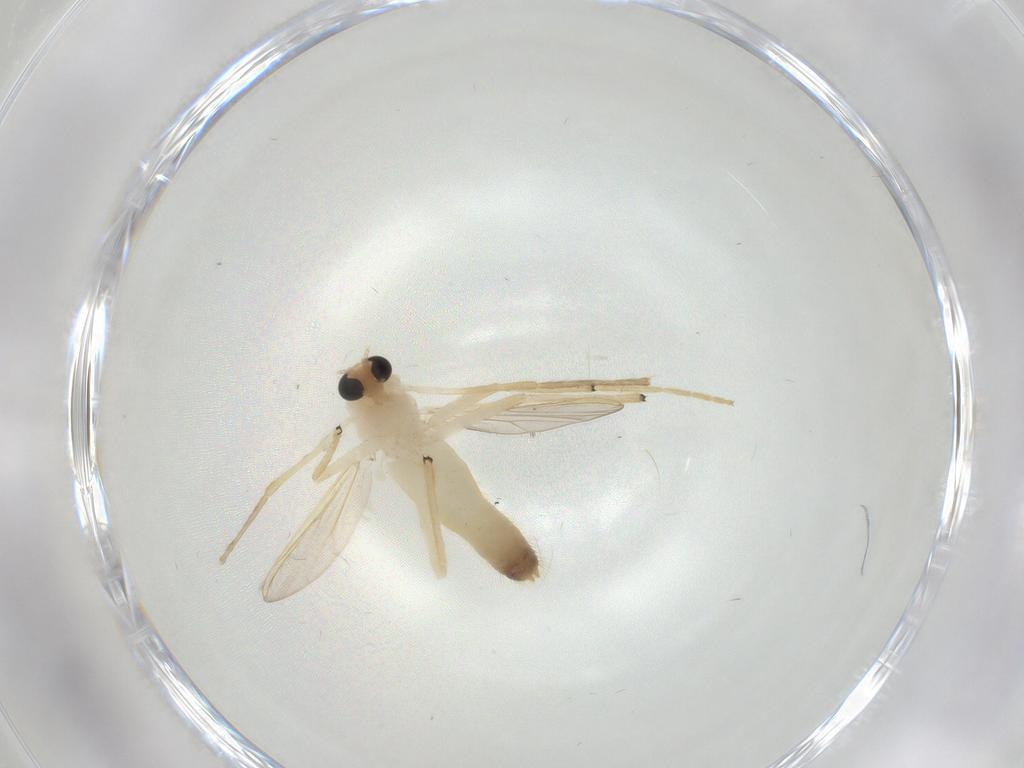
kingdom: Animalia
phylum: Arthropoda
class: Insecta
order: Diptera
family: Chironomidae
